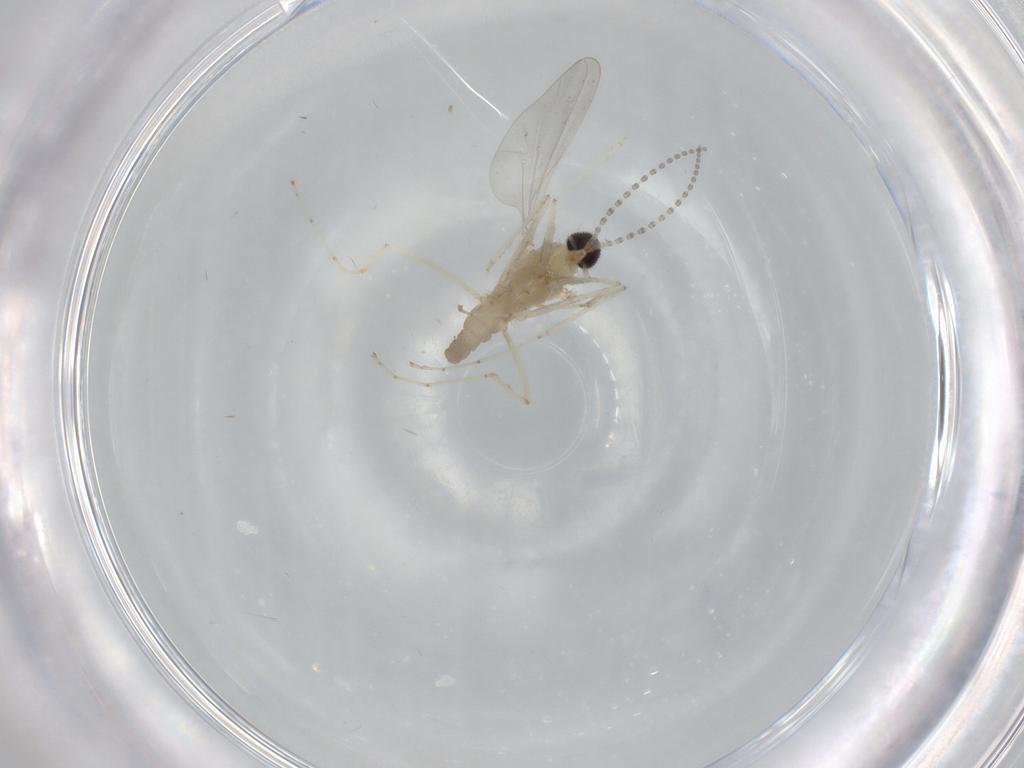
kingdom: Animalia
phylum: Arthropoda
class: Insecta
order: Diptera
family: Cecidomyiidae
